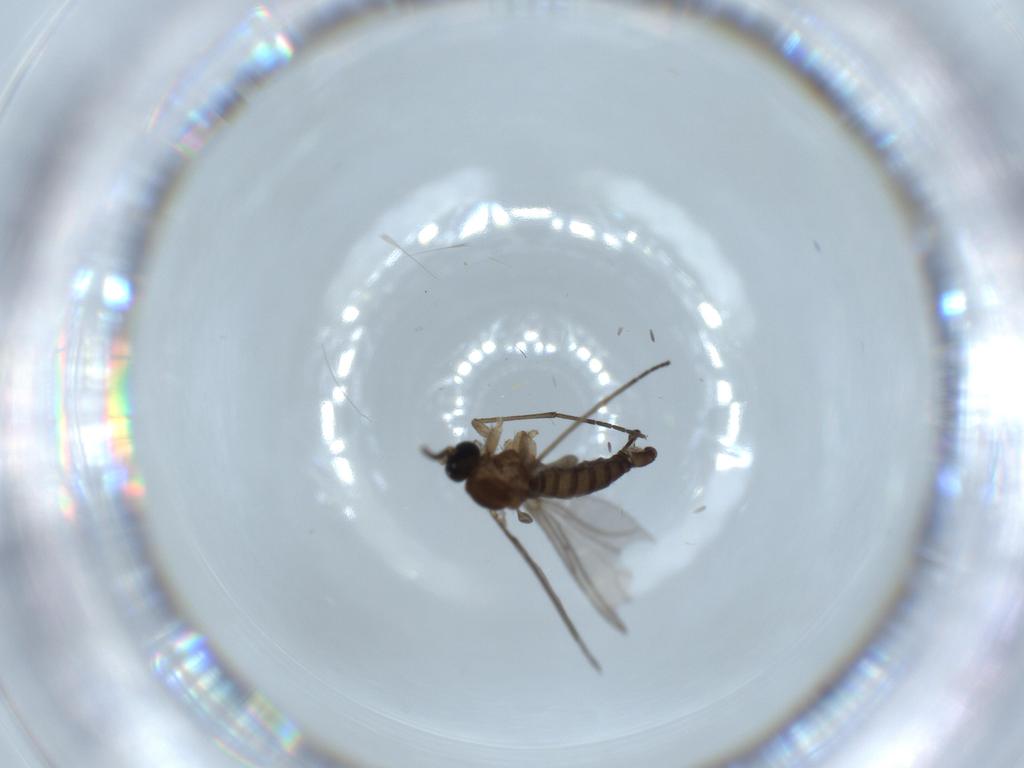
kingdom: Animalia
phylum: Arthropoda
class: Insecta
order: Diptera
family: Sciaridae
